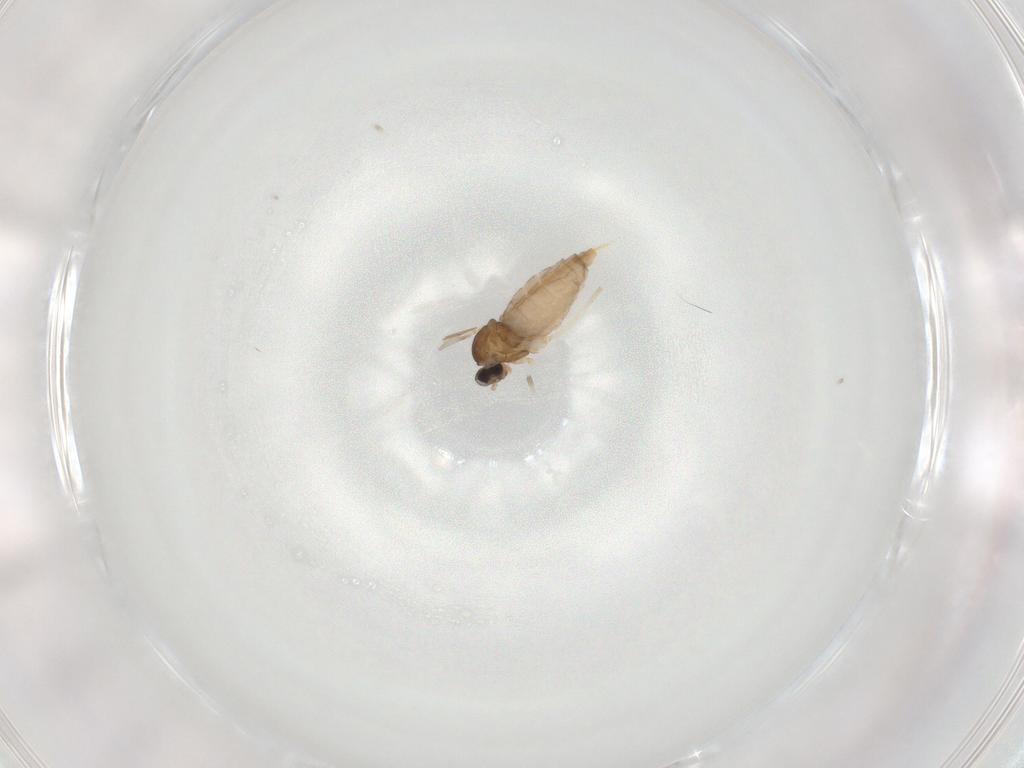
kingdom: Animalia
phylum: Arthropoda
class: Insecta
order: Diptera
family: Cecidomyiidae
